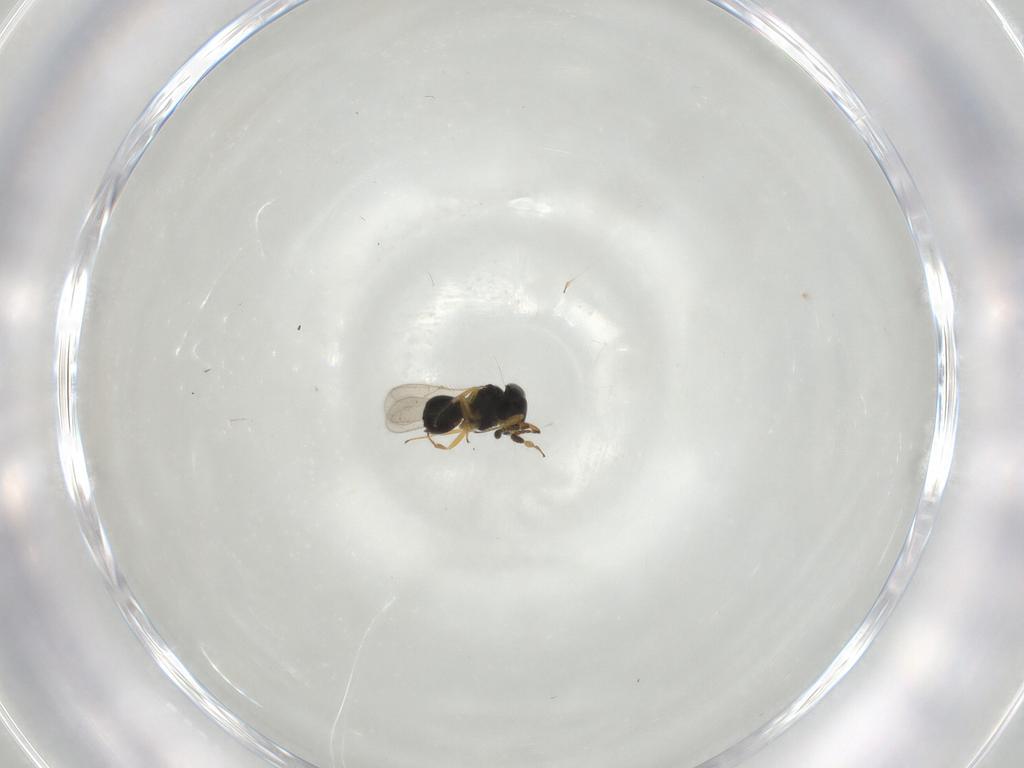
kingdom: Animalia
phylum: Arthropoda
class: Insecta
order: Hymenoptera
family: Scelionidae
